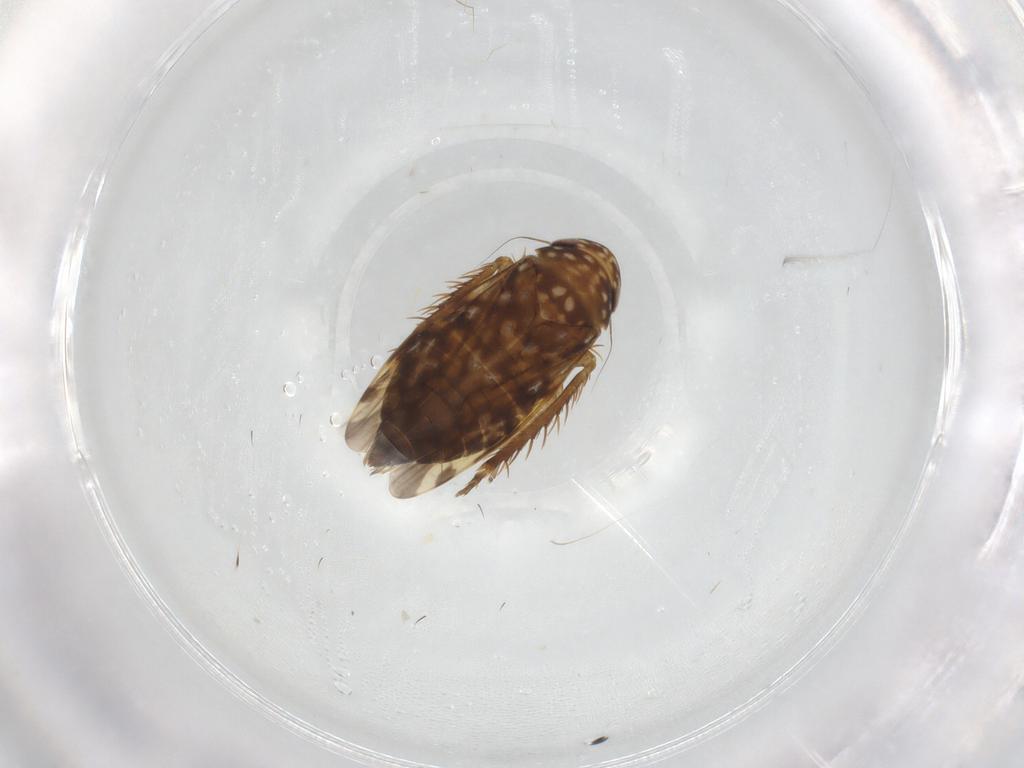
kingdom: Animalia
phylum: Arthropoda
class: Insecta
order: Hemiptera
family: Cicadellidae
